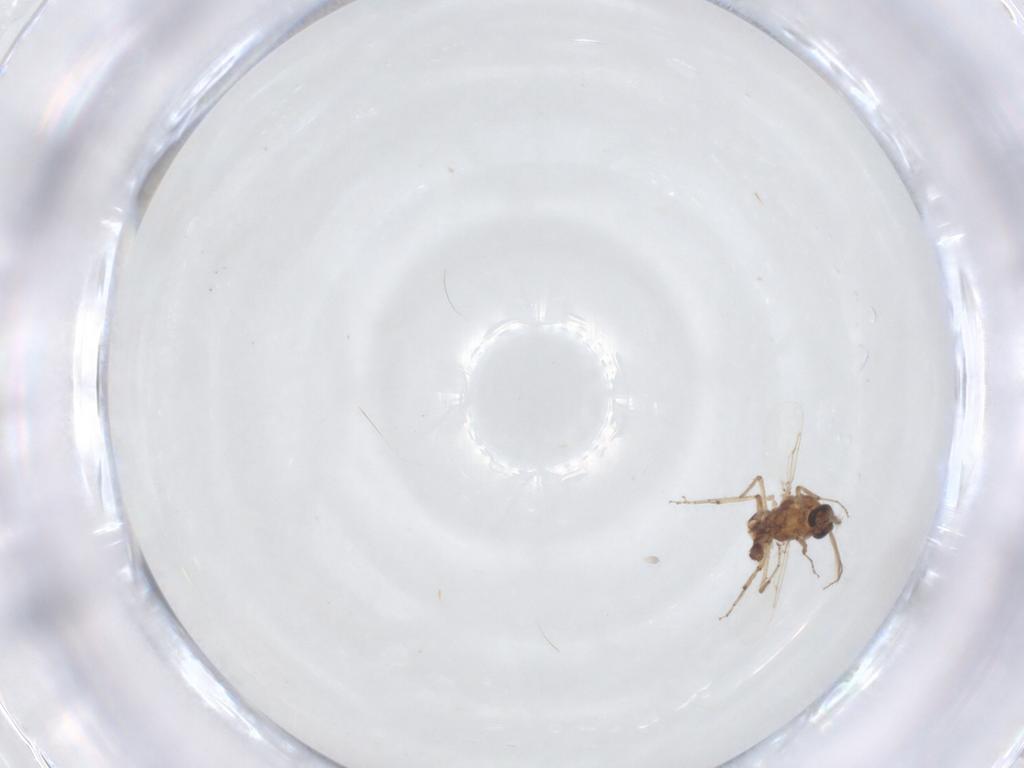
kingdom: Animalia
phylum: Arthropoda
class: Insecta
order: Diptera
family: Ceratopogonidae
